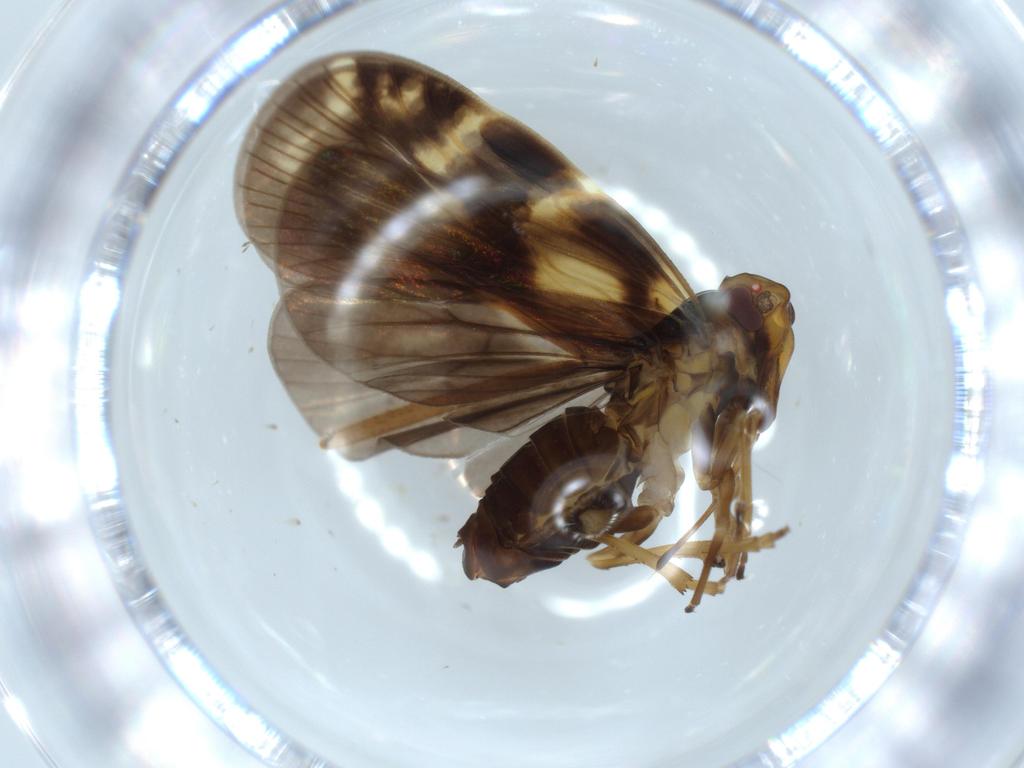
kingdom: Animalia
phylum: Arthropoda
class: Insecta
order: Hemiptera
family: Pentatomidae
